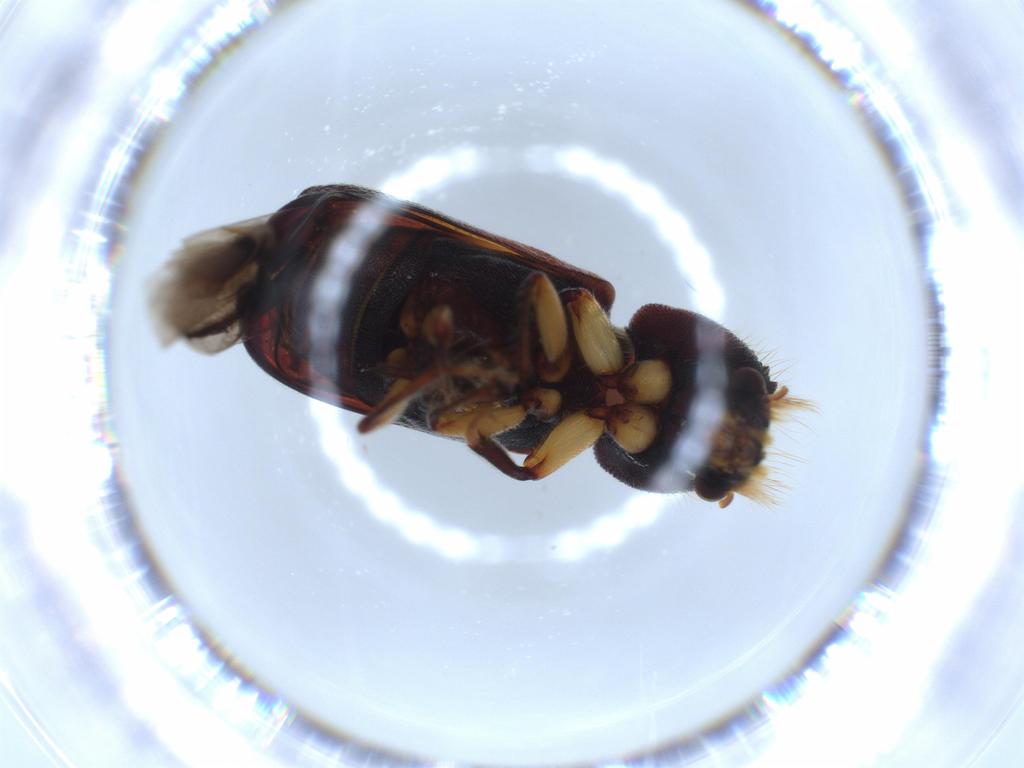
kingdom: Animalia
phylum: Arthropoda
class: Insecta
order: Coleoptera
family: Bostrichidae
